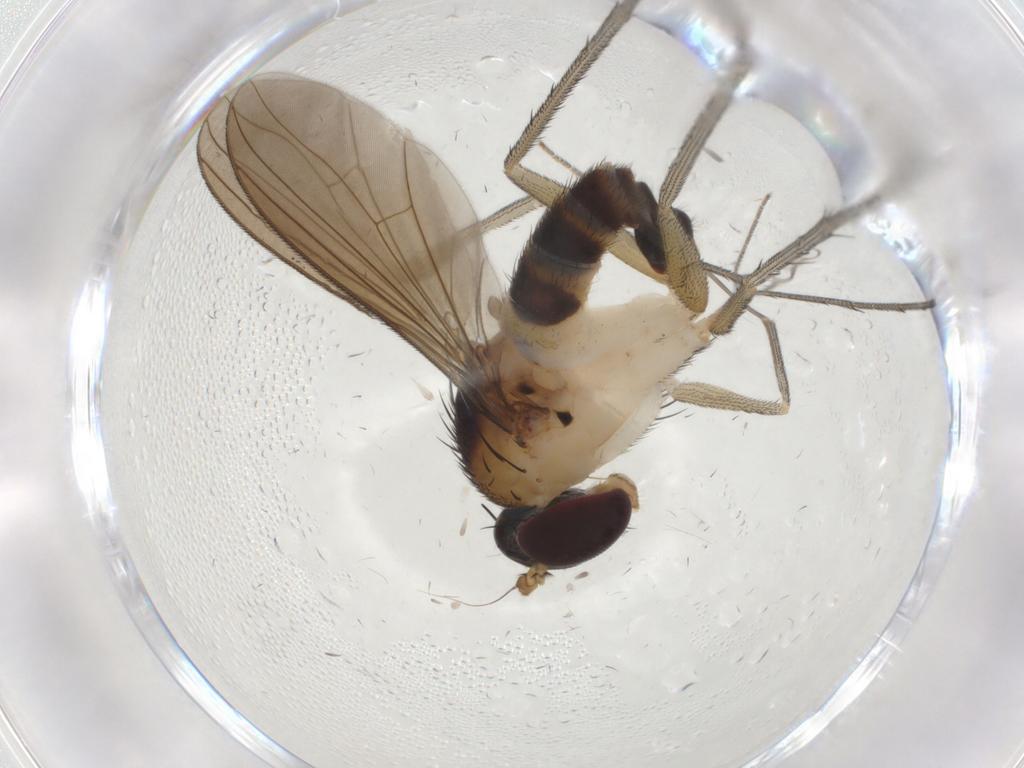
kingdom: Animalia
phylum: Arthropoda
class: Insecta
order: Diptera
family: Dolichopodidae
